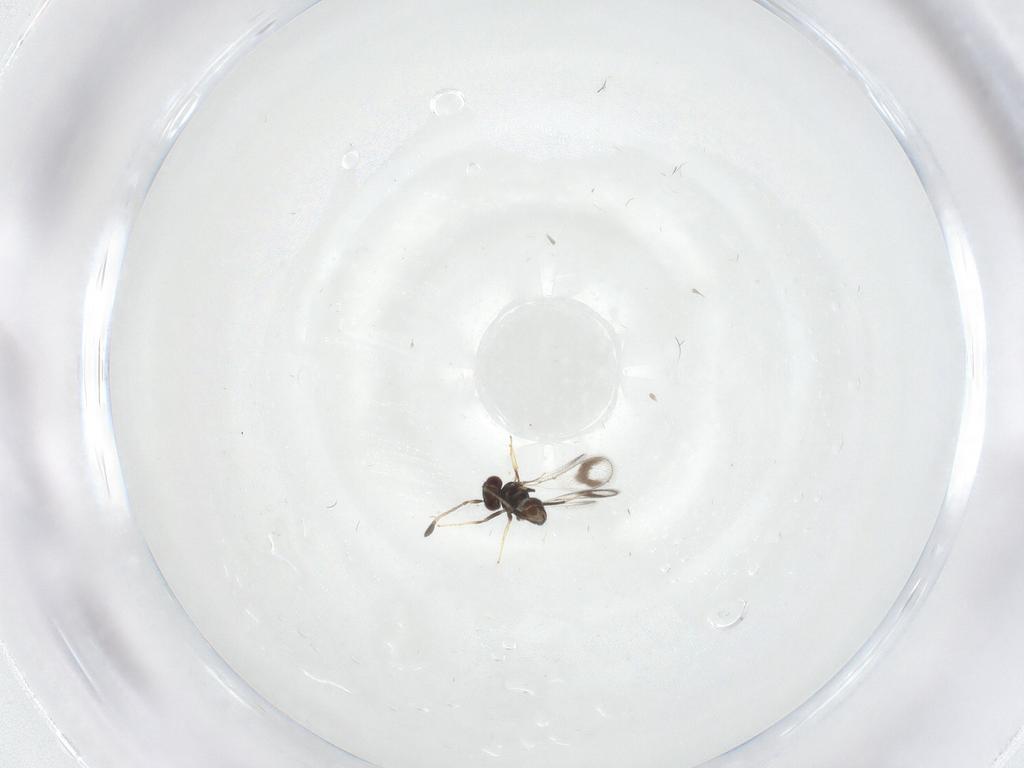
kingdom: Animalia
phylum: Arthropoda
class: Insecta
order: Hymenoptera
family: Mymaridae
